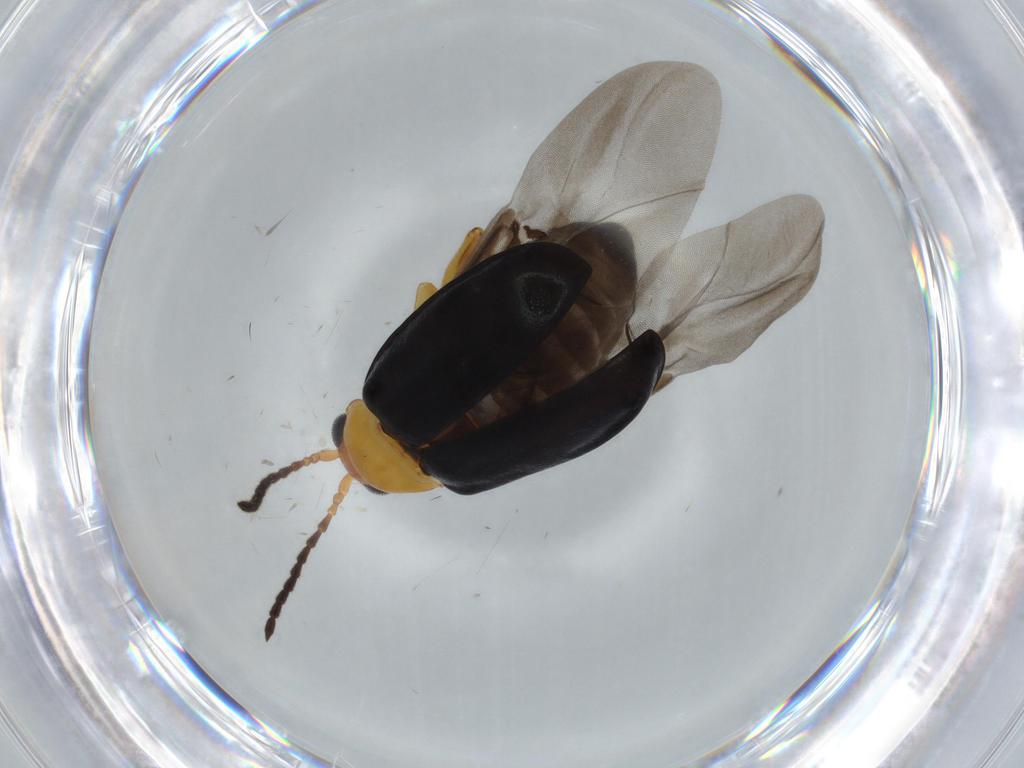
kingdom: Animalia
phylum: Arthropoda
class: Insecta
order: Coleoptera
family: Chrysomelidae
